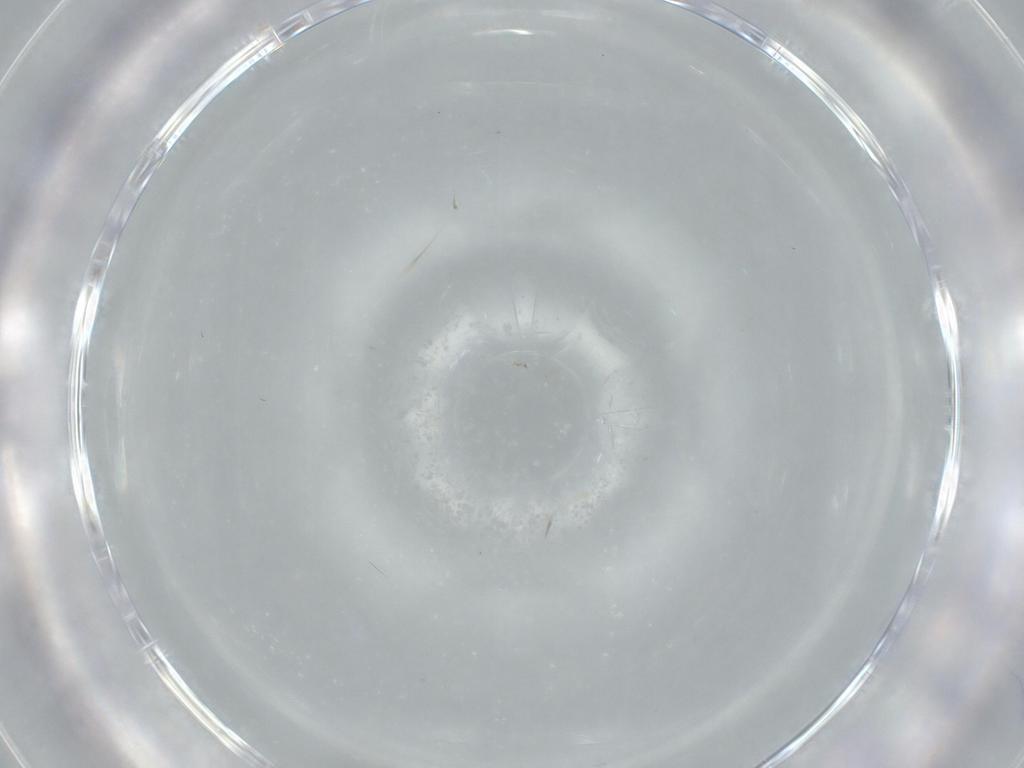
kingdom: Animalia
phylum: Arthropoda
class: Insecta
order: Diptera
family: Cecidomyiidae
